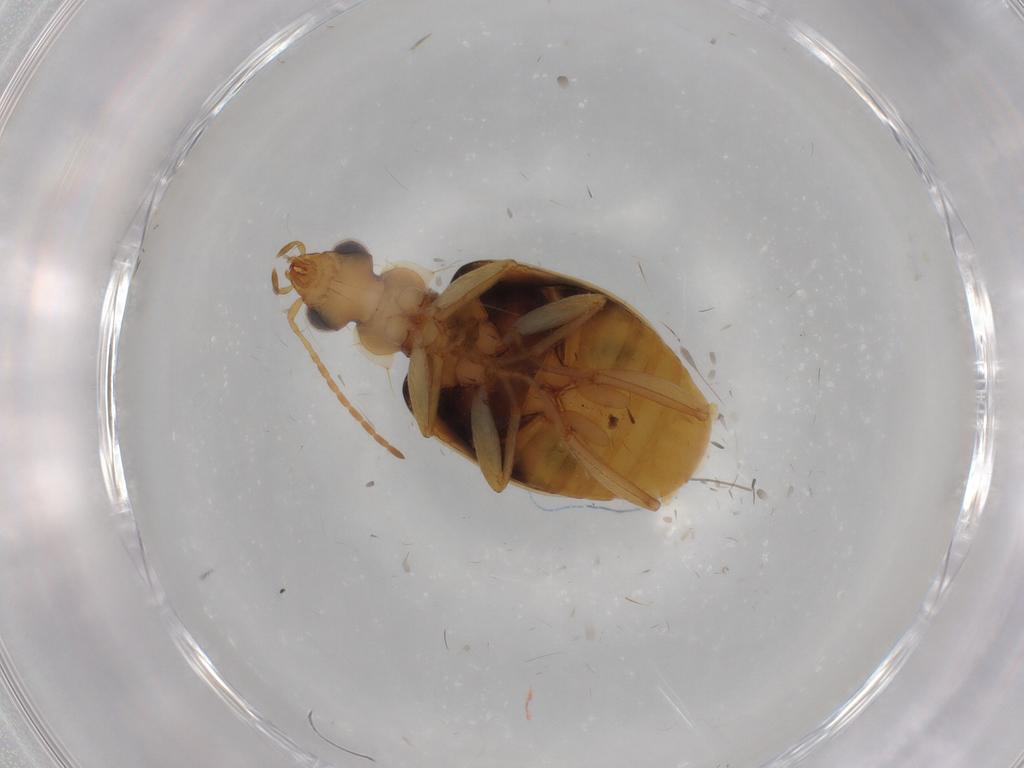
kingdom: Animalia
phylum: Arthropoda
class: Insecta
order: Coleoptera
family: Carabidae
